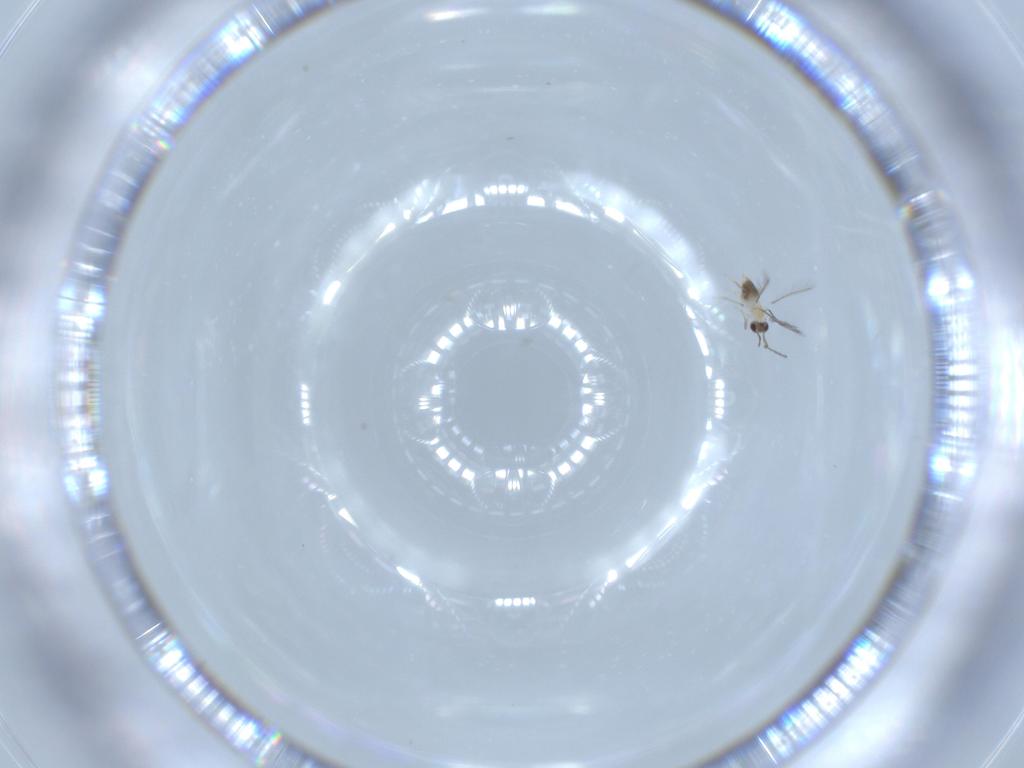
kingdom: Animalia
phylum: Arthropoda
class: Insecta
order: Hymenoptera
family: Mymaridae
